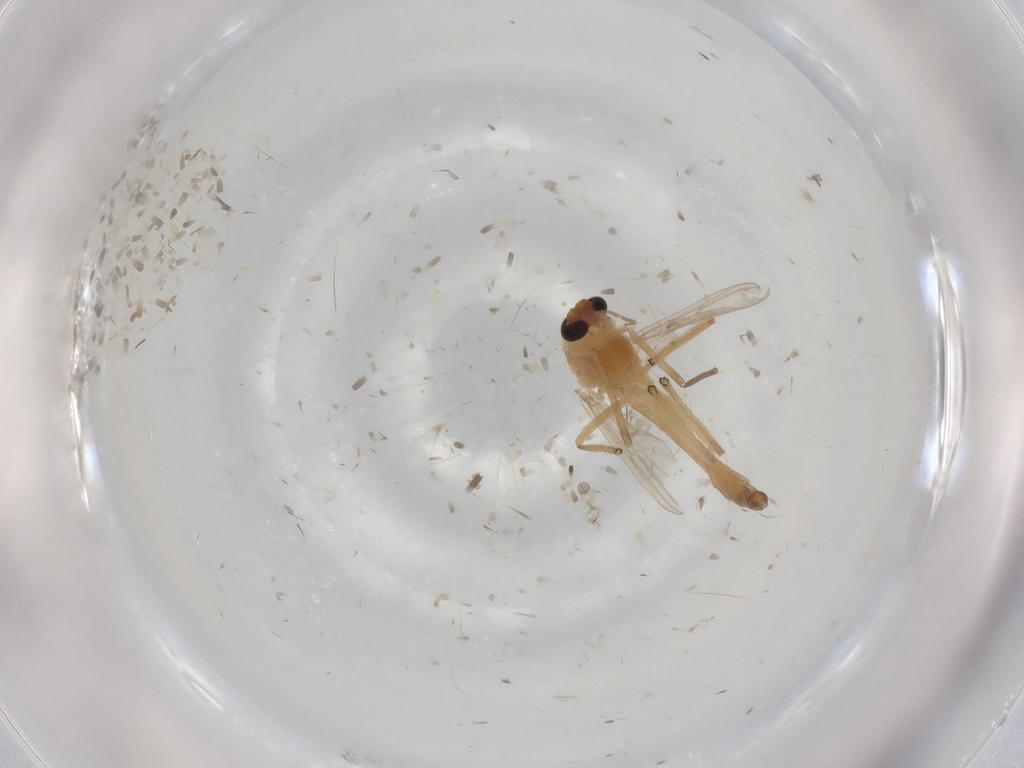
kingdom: Animalia
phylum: Arthropoda
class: Insecta
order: Diptera
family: Chironomidae
